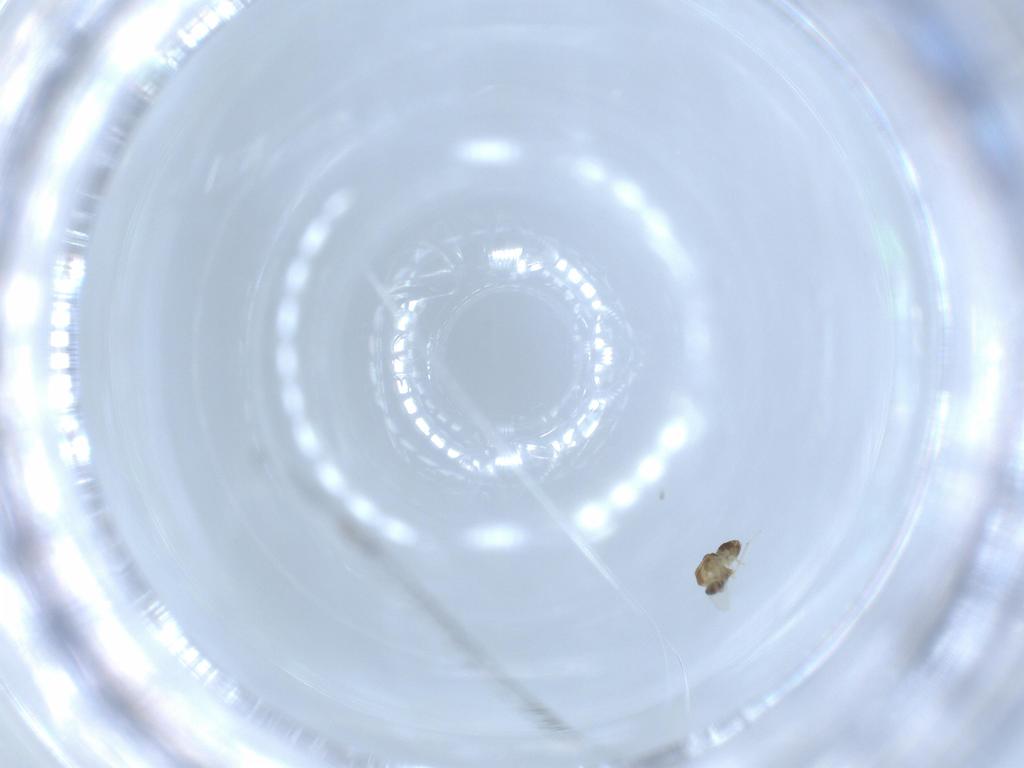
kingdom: Animalia
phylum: Arthropoda
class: Insecta
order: Diptera
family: Chironomidae
